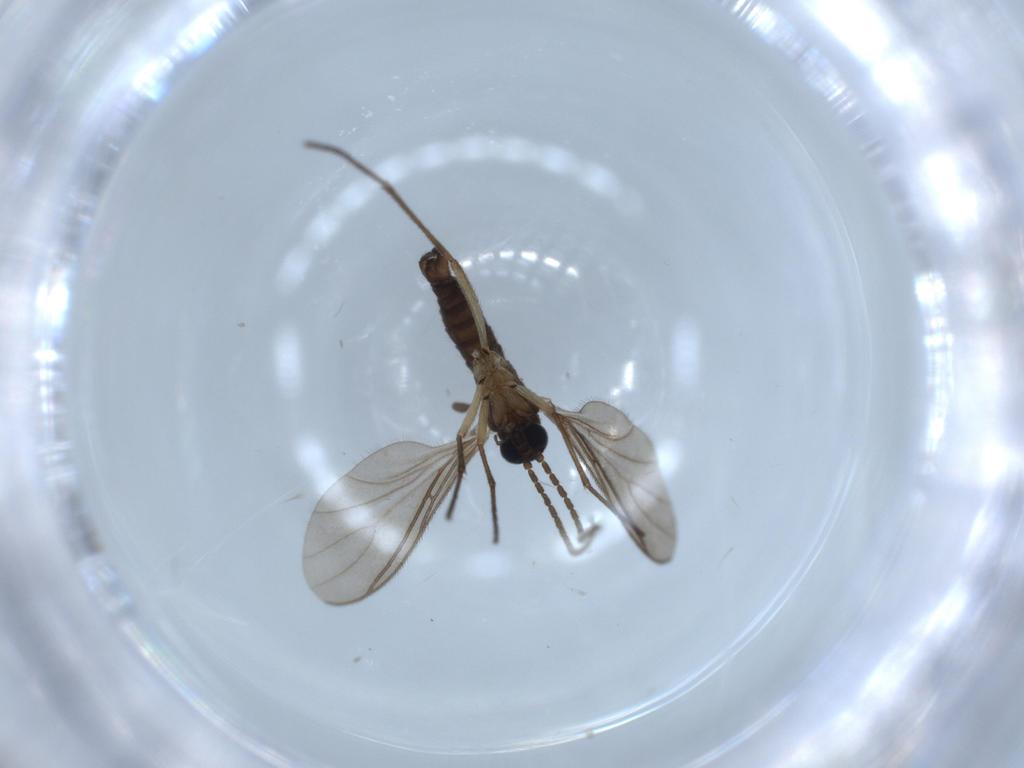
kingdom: Animalia
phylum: Arthropoda
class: Insecta
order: Diptera
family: Sciaridae
